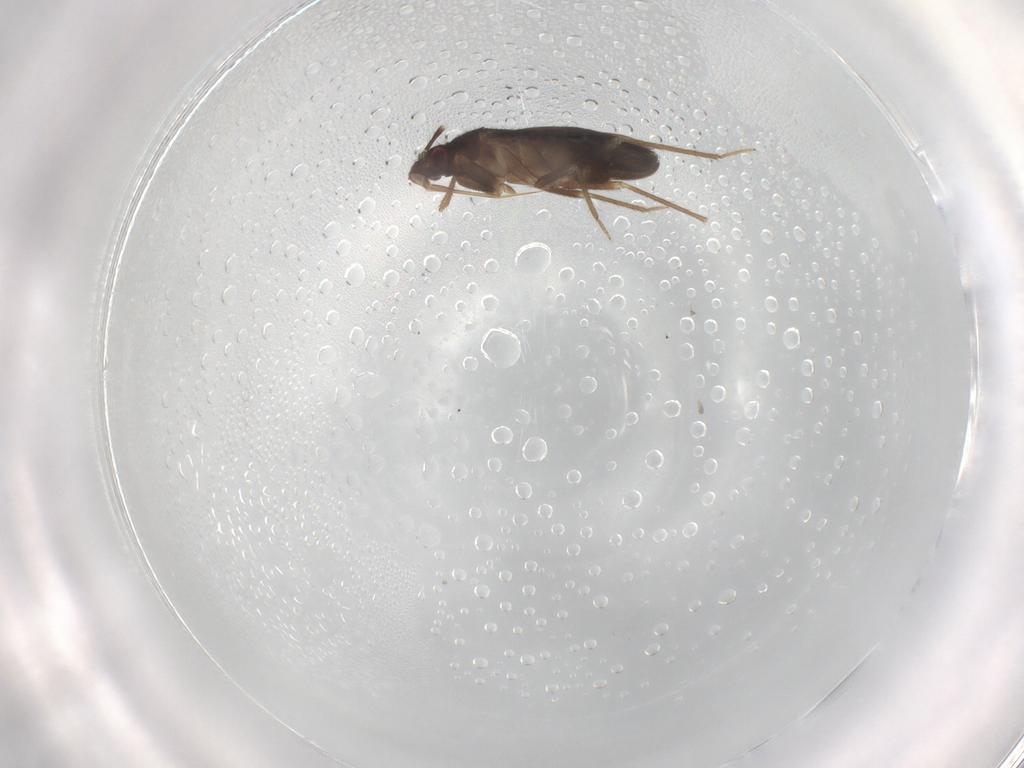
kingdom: Animalia
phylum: Arthropoda
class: Insecta
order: Hemiptera
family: Ceratocombidae
